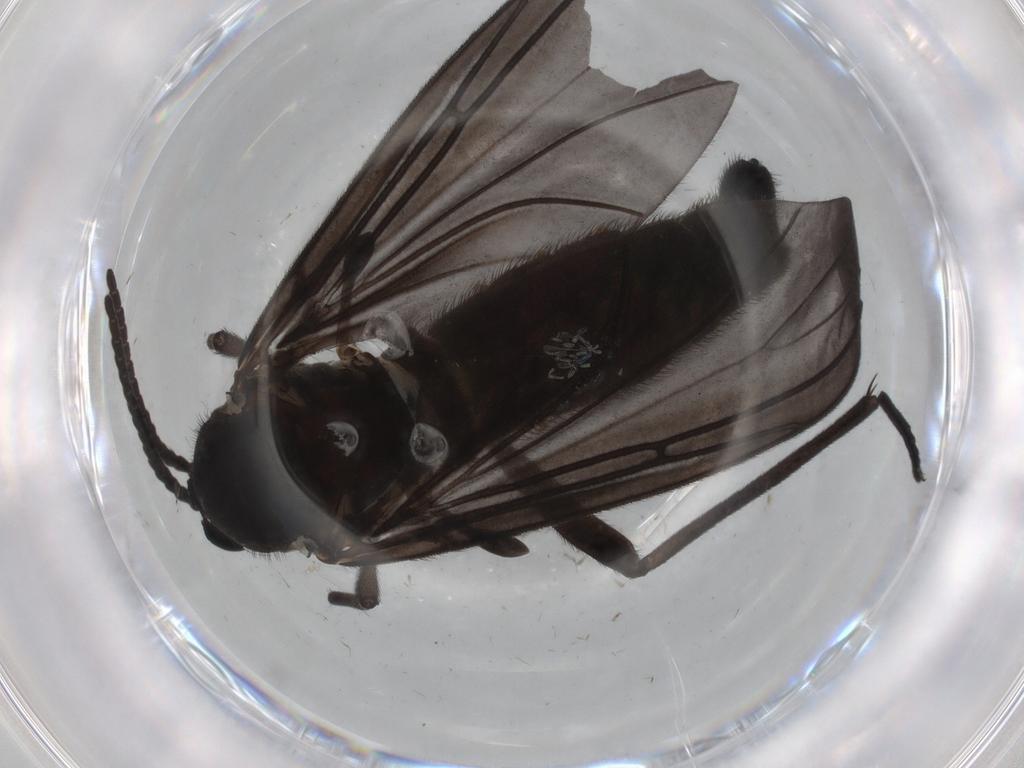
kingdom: Animalia
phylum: Arthropoda
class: Insecta
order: Diptera
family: Sciaridae
